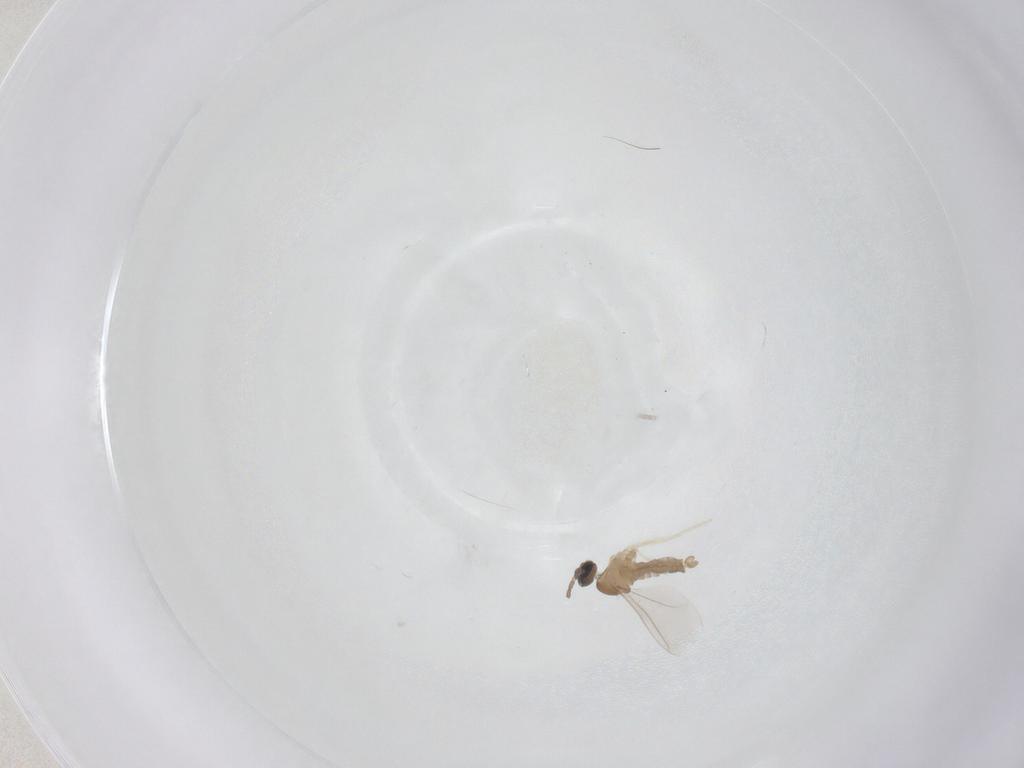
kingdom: Animalia
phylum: Arthropoda
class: Insecta
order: Diptera
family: Cecidomyiidae
